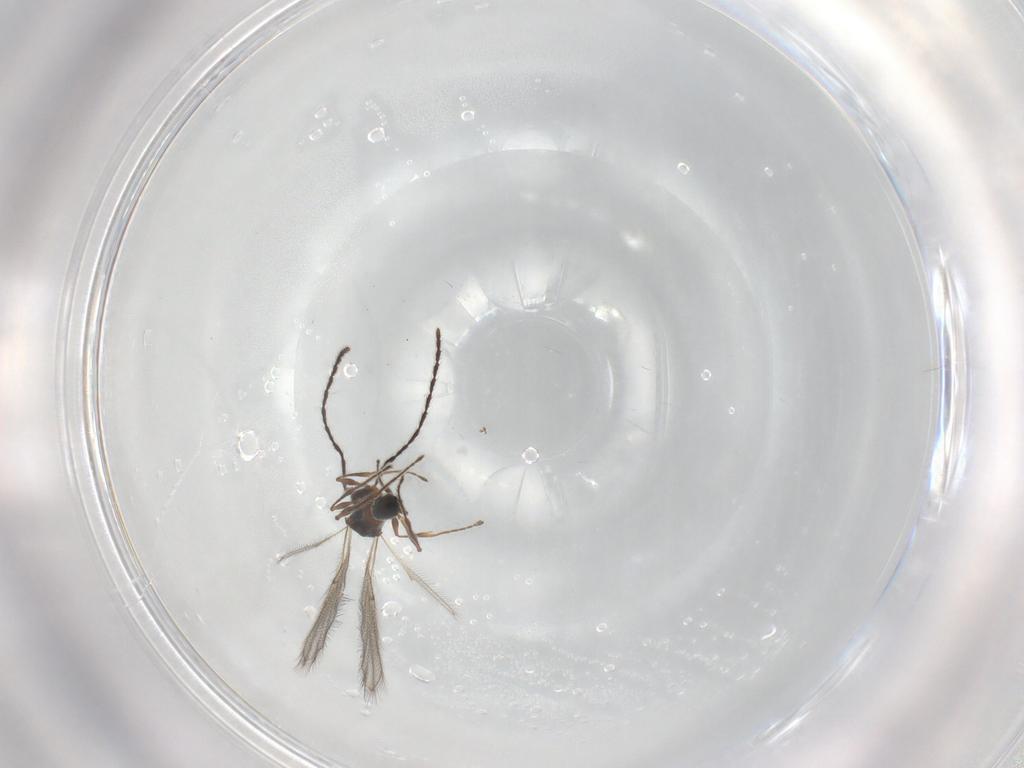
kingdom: Animalia
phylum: Arthropoda
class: Insecta
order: Hymenoptera
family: Diapriidae
